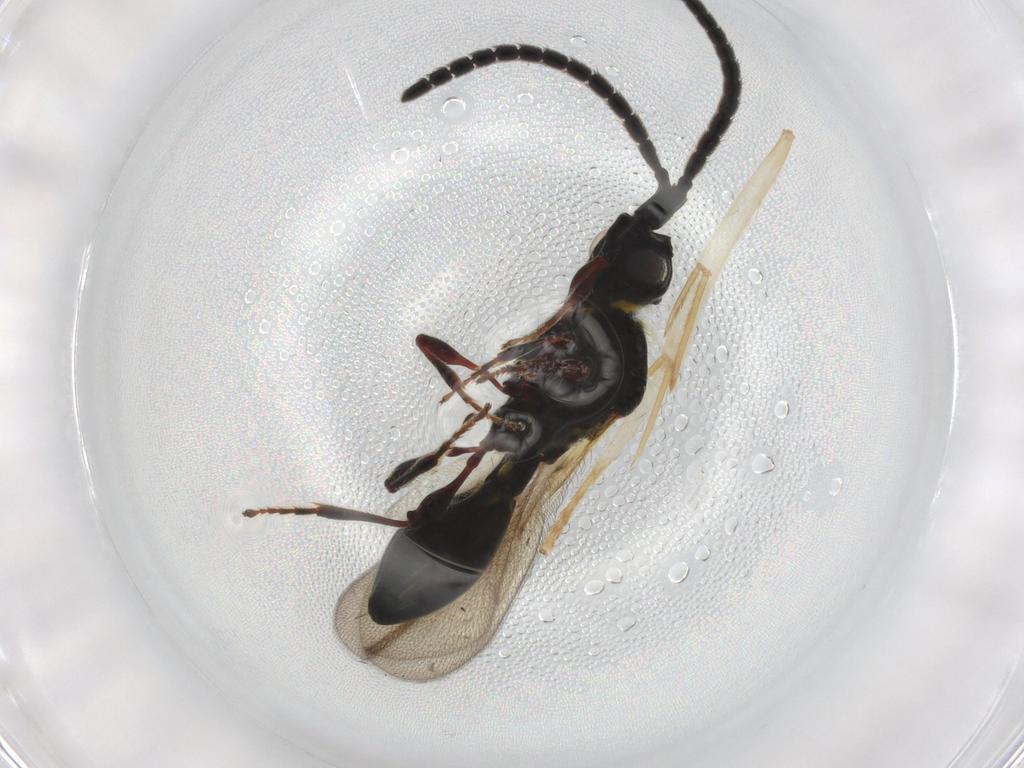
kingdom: Animalia
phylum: Arthropoda
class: Insecta
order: Hymenoptera
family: Diapriidae
